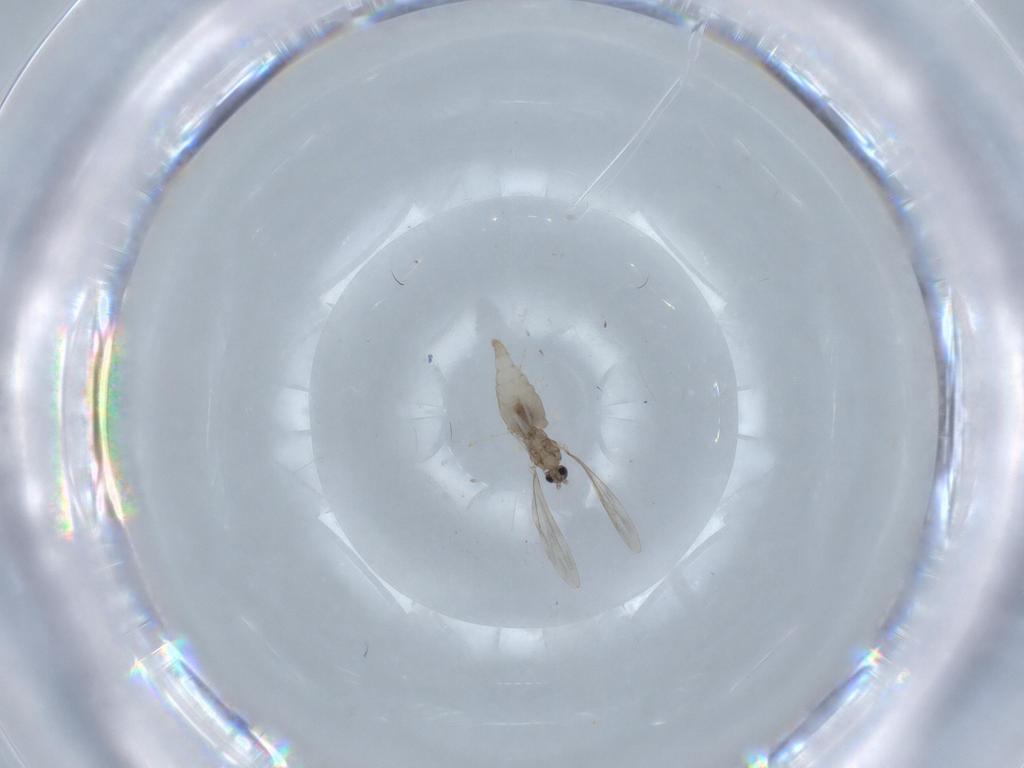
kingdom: Animalia
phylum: Arthropoda
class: Insecta
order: Diptera
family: Cecidomyiidae
